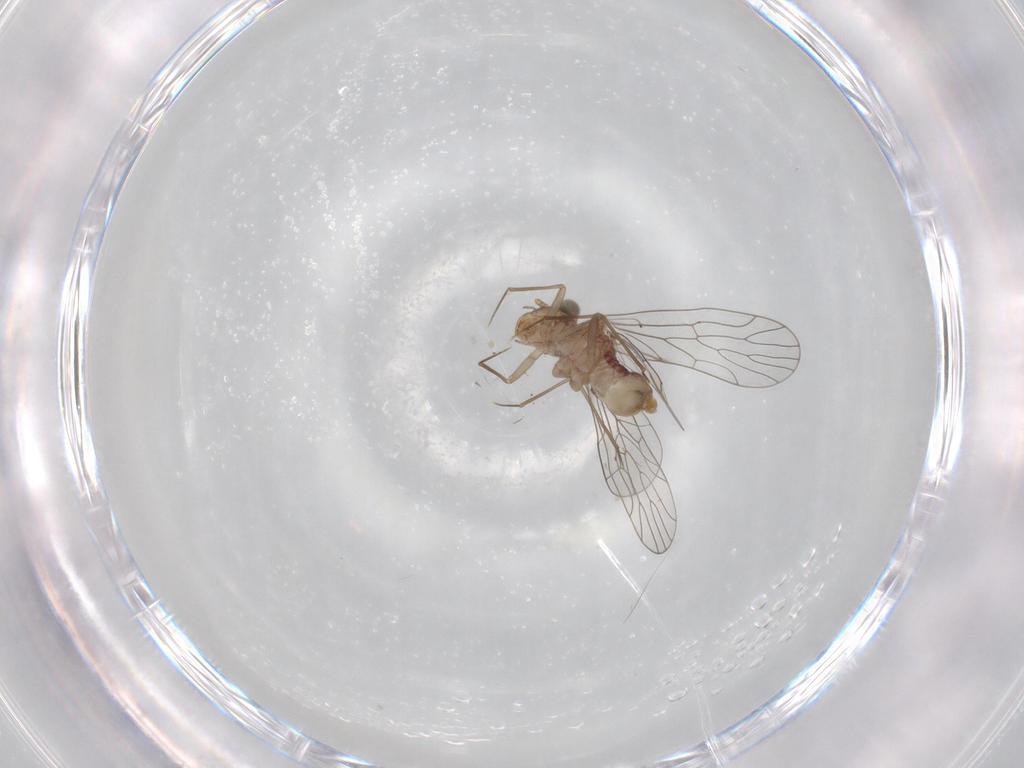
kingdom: Animalia
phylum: Arthropoda
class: Insecta
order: Psocodea
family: Amphientomidae
